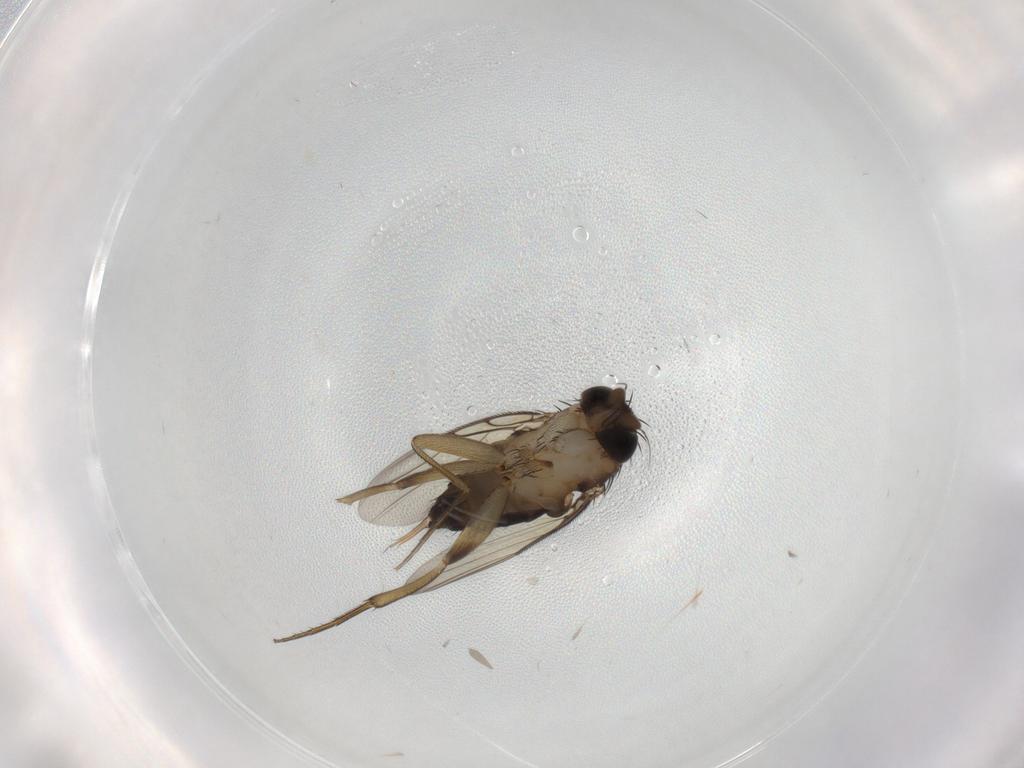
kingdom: Animalia
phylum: Arthropoda
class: Insecta
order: Diptera
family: Phoridae
